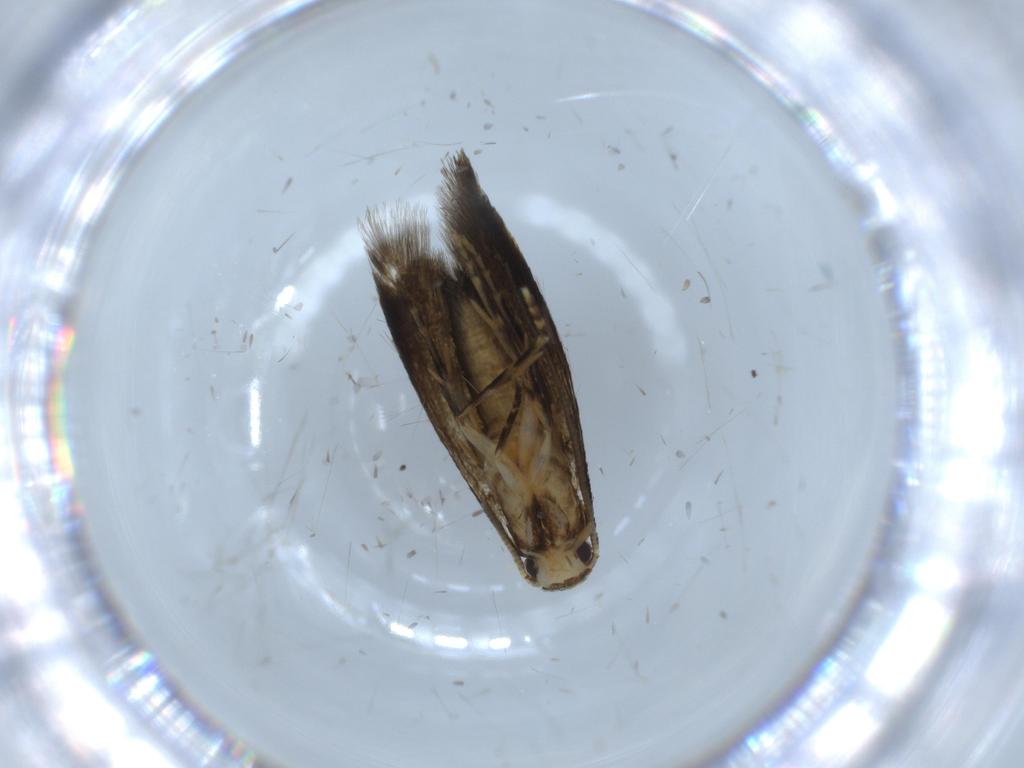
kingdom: Animalia
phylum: Arthropoda
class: Insecta
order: Lepidoptera
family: Tineidae
